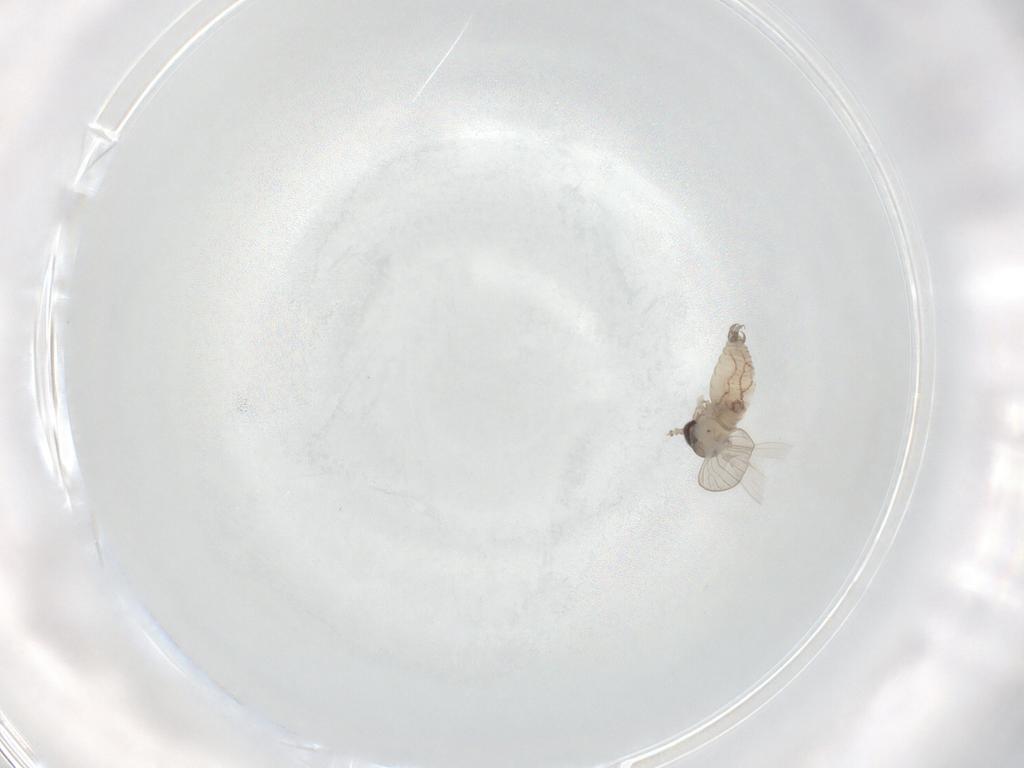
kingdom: Animalia
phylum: Arthropoda
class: Insecta
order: Diptera
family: Psychodidae
